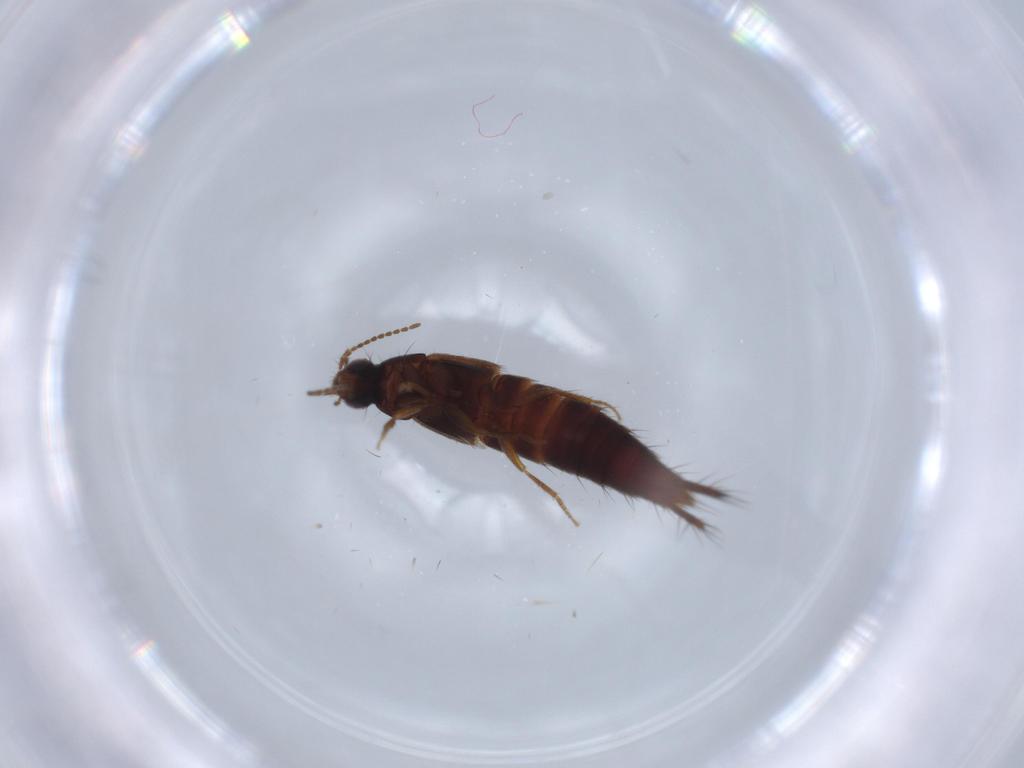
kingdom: Animalia
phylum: Arthropoda
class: Insecta
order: Coleoptera
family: Staphylinidae
